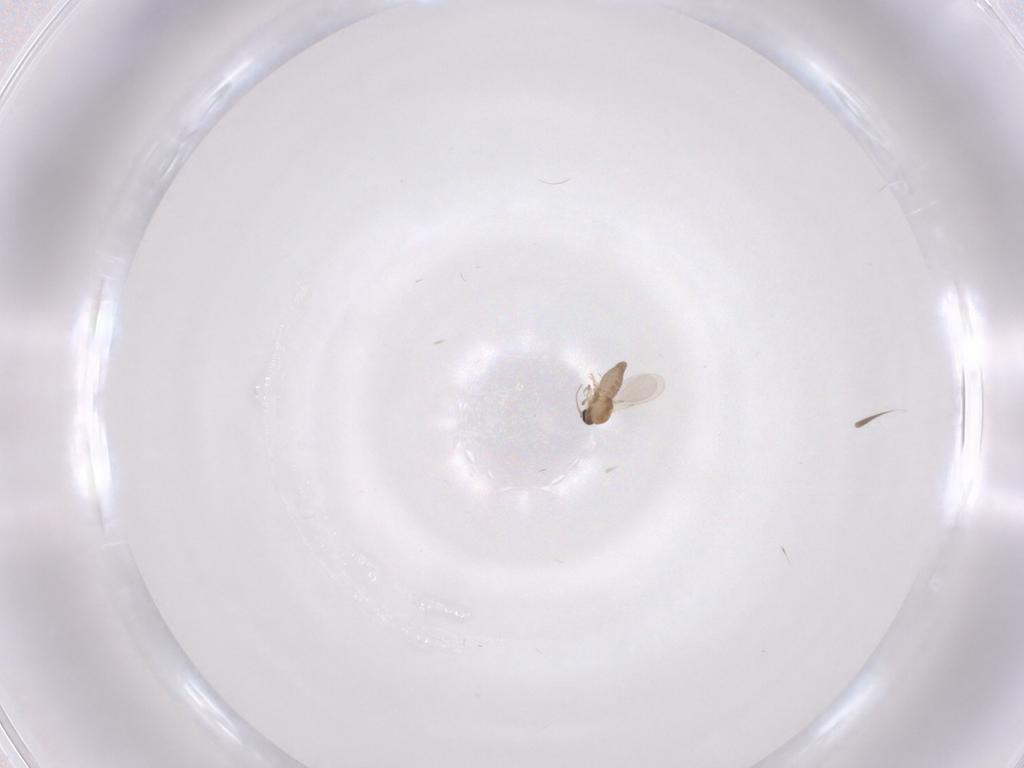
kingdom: Animalia
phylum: Arthropoda
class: Insecta
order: Diptera
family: Ceratopogonidae
